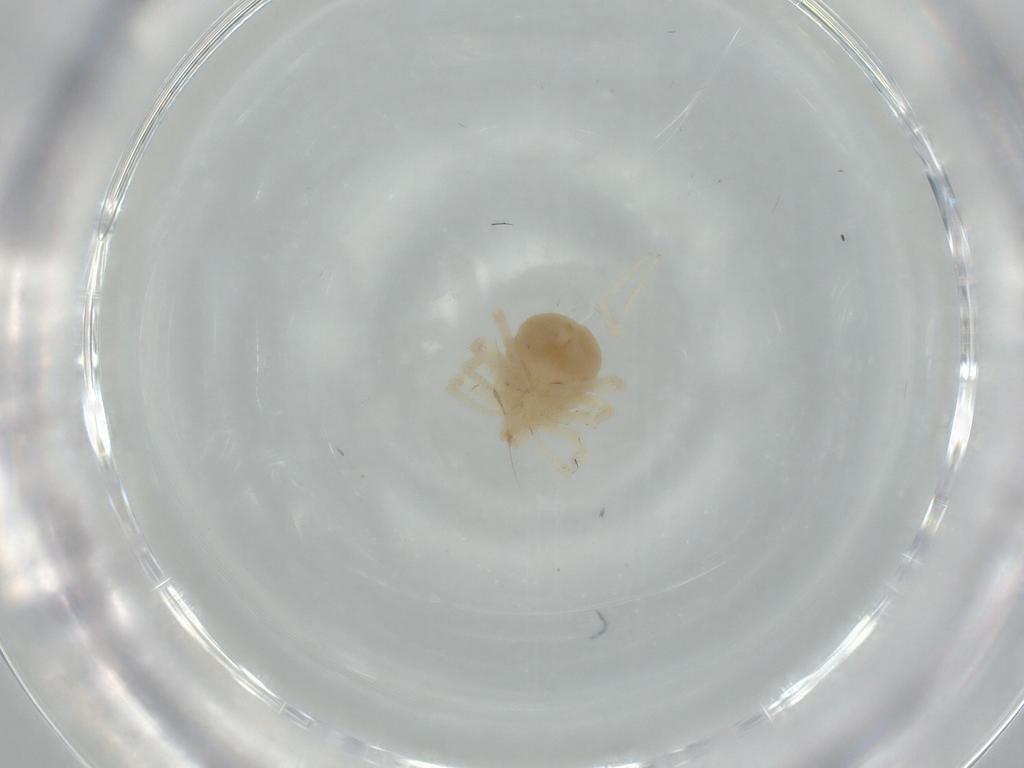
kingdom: Animalia
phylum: Arthropoda
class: Arachnida
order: Trombidiformes
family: Anystidae
